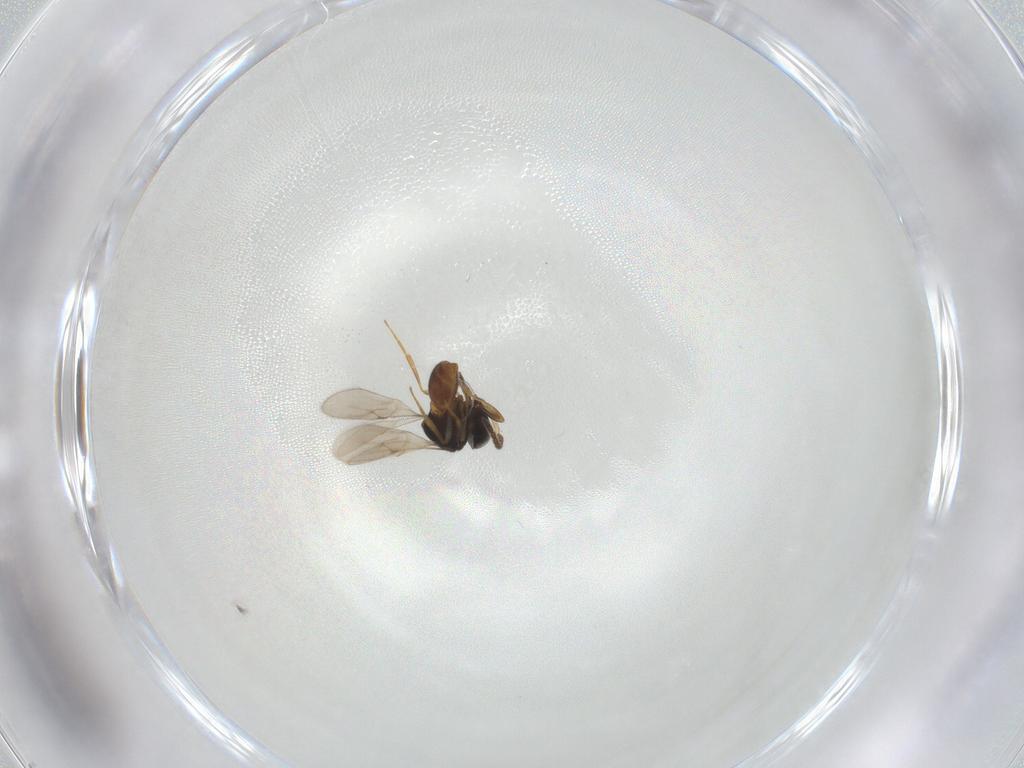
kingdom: Animalia
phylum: Arthropoda
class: Insecta
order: Hymenoptera
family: Scelionidae
